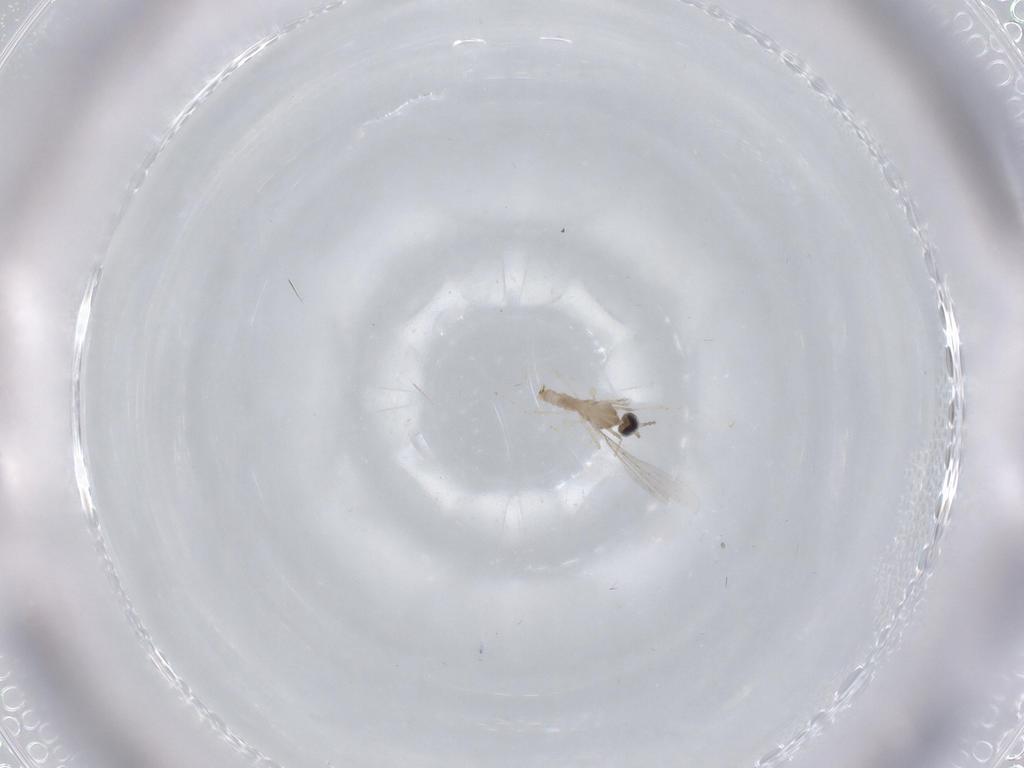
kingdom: Animalia
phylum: Arthropoda
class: Insecta
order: Diptera
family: Cecidomyiidae
